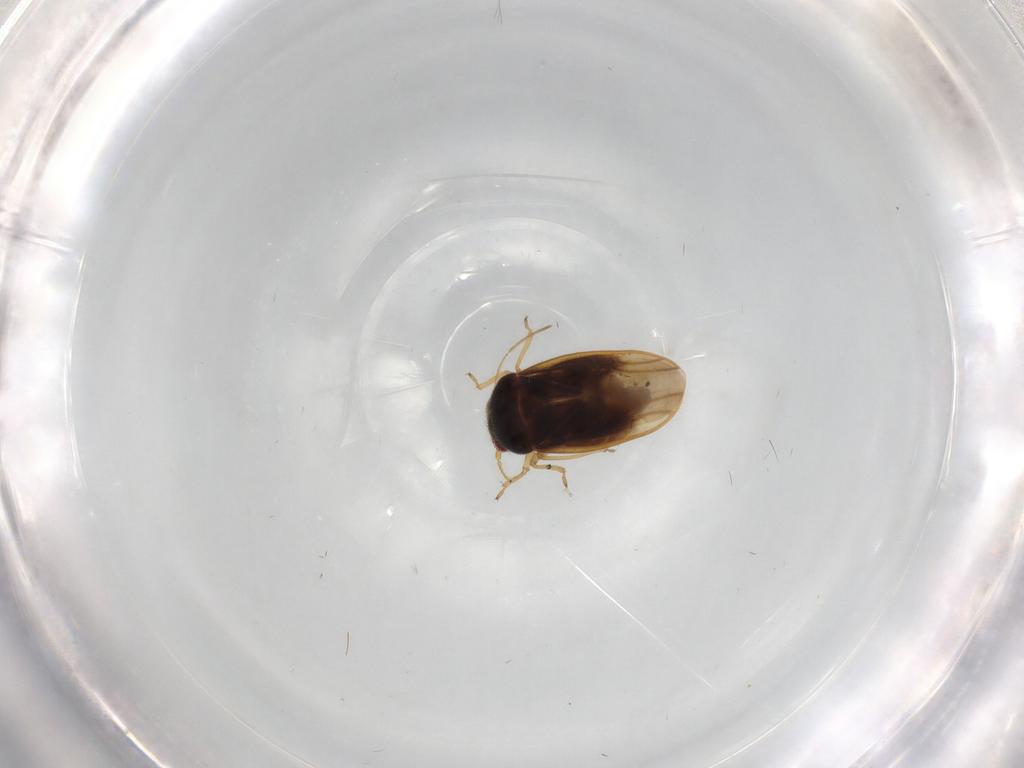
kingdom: Animalia
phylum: Arthropoda
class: Insecta
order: Hemiptera
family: Schizopteridae
